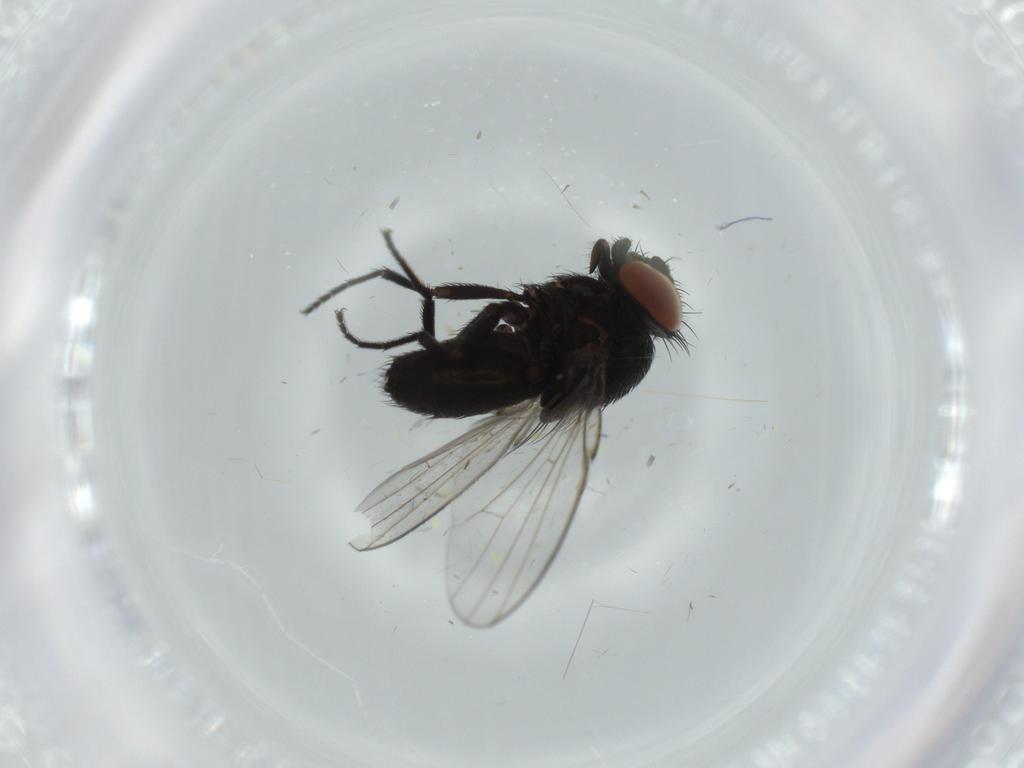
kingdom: Animalia
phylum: Arthropoda
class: Insecta
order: Diptera
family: Milichiidae
